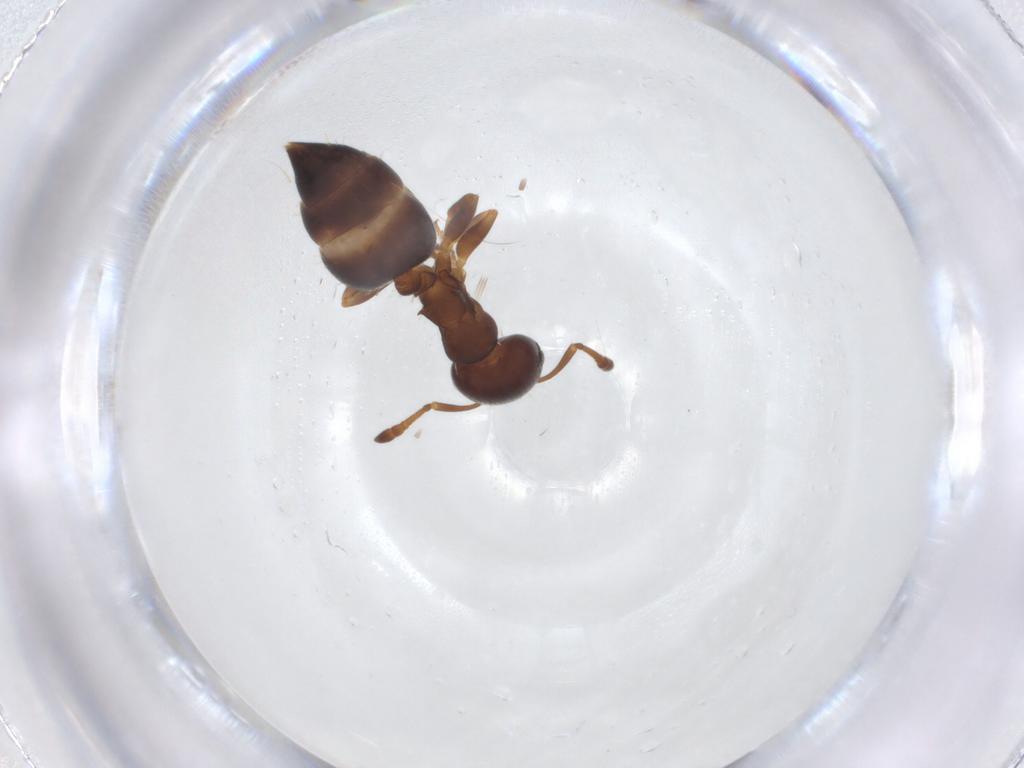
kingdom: Animalia
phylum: Arthropoda
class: Insecta
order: Hymenoptera
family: Formicidae
